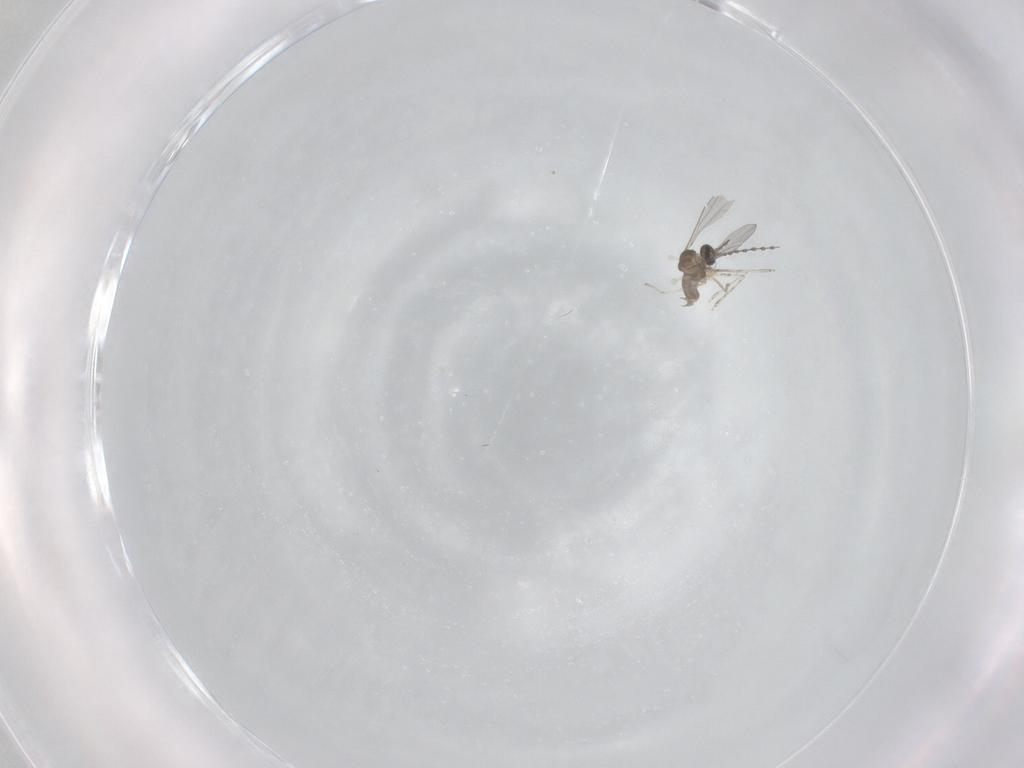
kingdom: Animalia
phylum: Arthropoda
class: Insecta
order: Diptera
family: Cecidomyiidae
